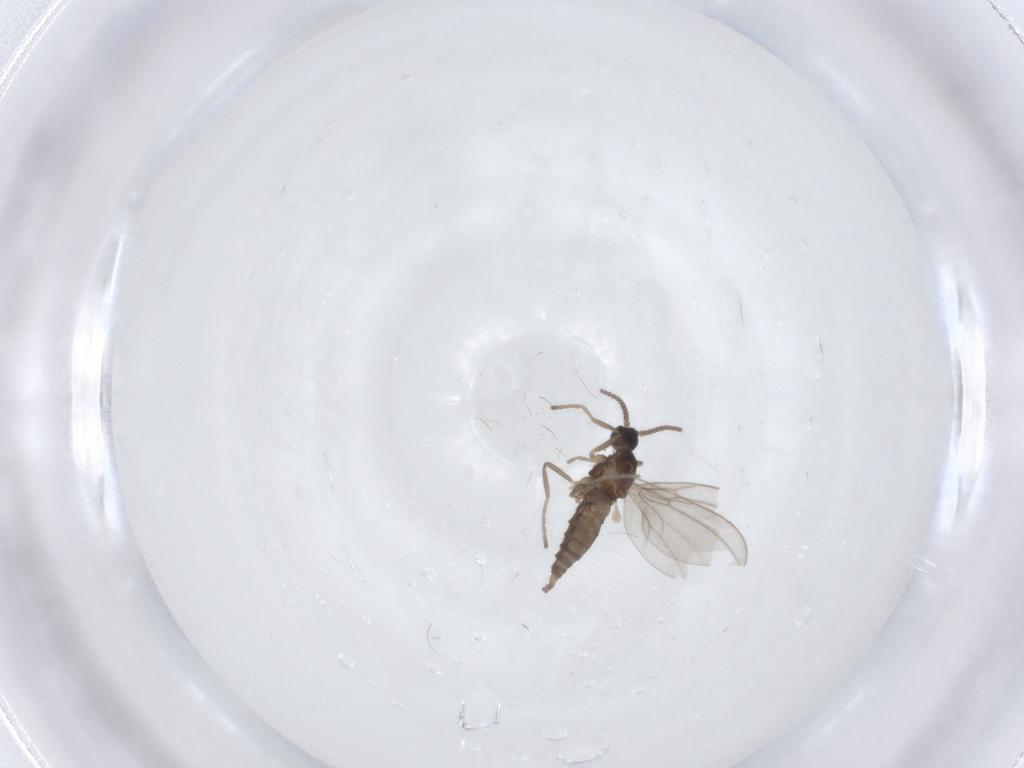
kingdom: Animalia
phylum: Arthropoda
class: Insecta
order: Diptera
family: Cecidomyiidae
